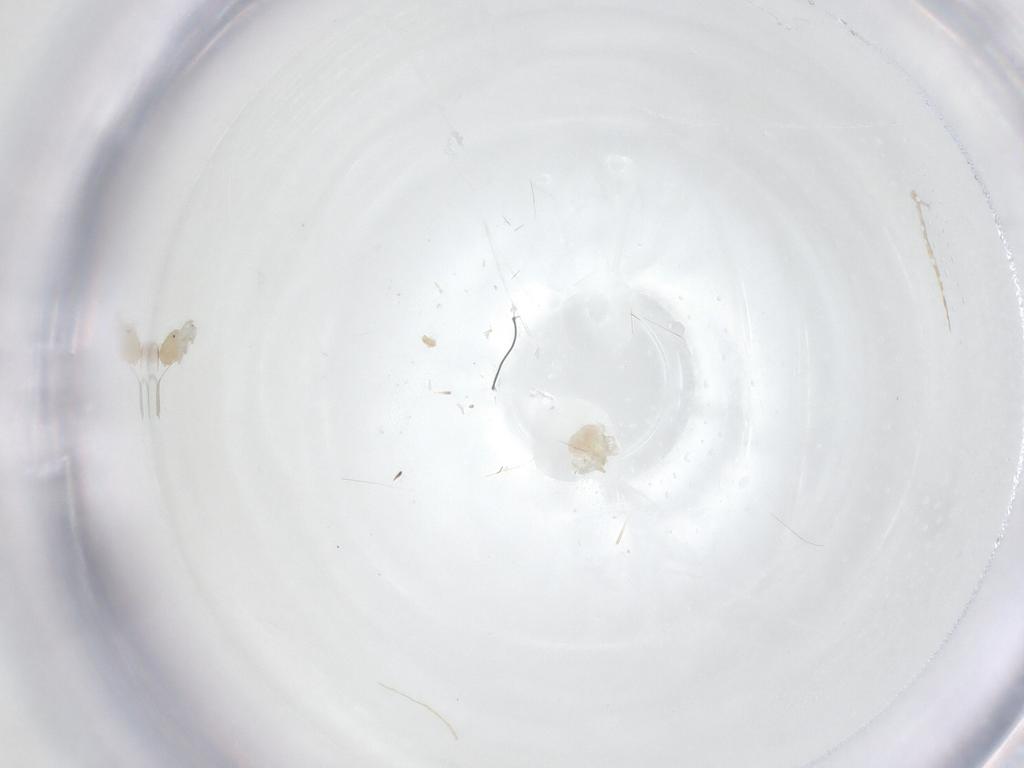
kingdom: Animalia
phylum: Arthropoda
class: Arachnida
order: Trombidiformes
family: Anystidae
